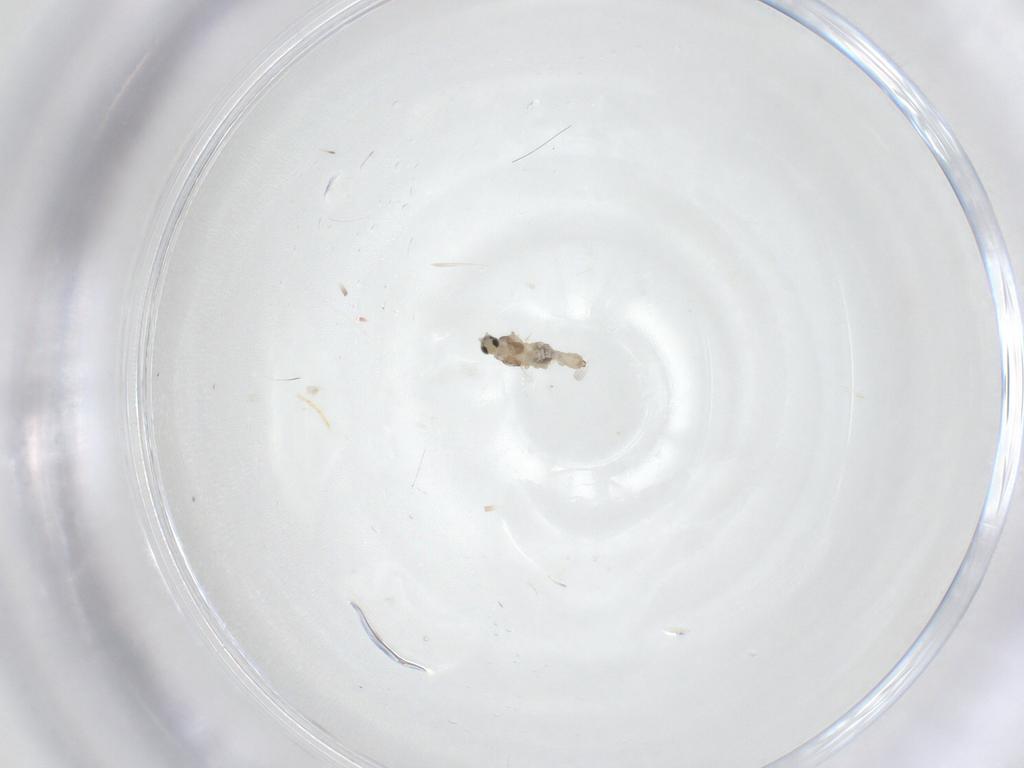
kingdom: Animalia
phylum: Arthropoda
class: Insecta
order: Diptera
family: Cecidomyiidae
